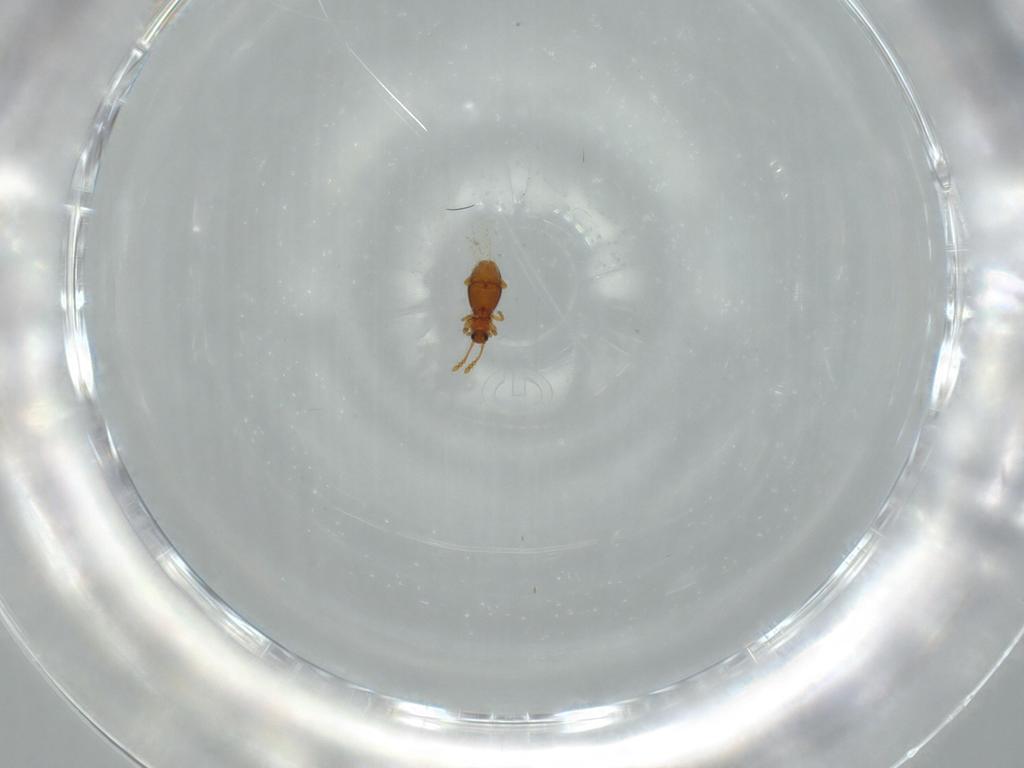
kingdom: Animalia
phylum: Arthropoda
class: Insecta
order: Coleoptera
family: Staphylinidae
